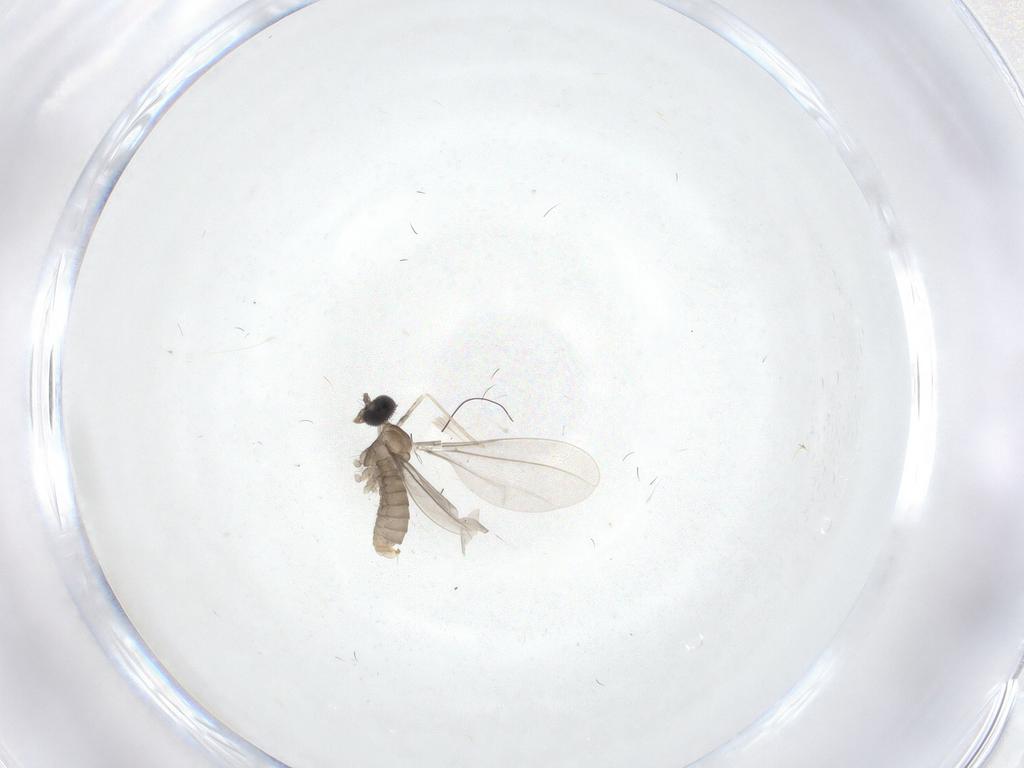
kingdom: Animalia
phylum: Arthropoda
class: Insecta
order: Diptera
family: Cecidomyiidae
